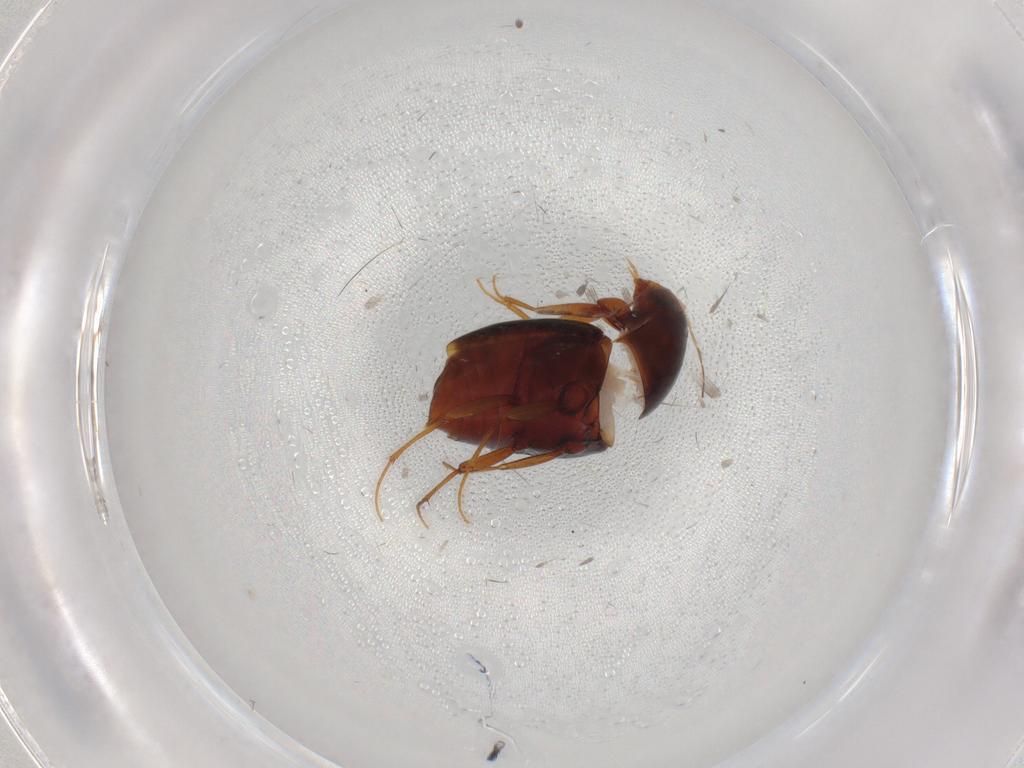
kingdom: Animalia
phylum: Arthropoda
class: Insecta
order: Coleoptera
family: Staphylinidae
